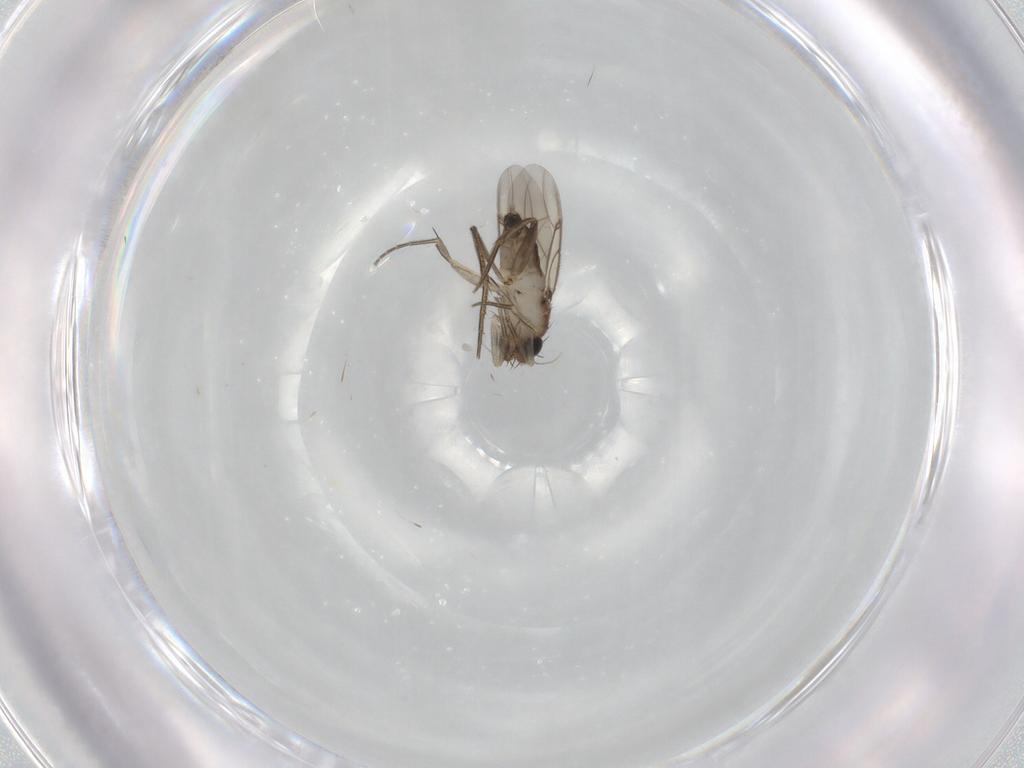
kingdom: Animalia
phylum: Arthropoda
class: Insecta
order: Diptera
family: Phoridae
